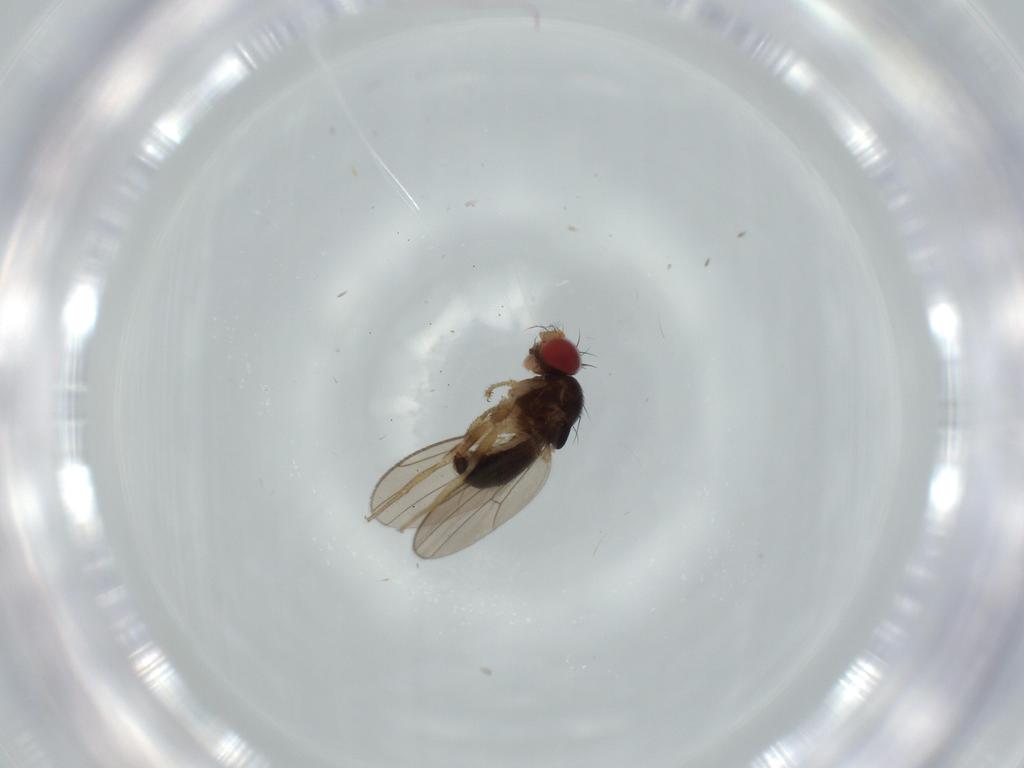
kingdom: Animalia
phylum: Arthropoda
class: Insecta
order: Diptera
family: Drosophilidae
